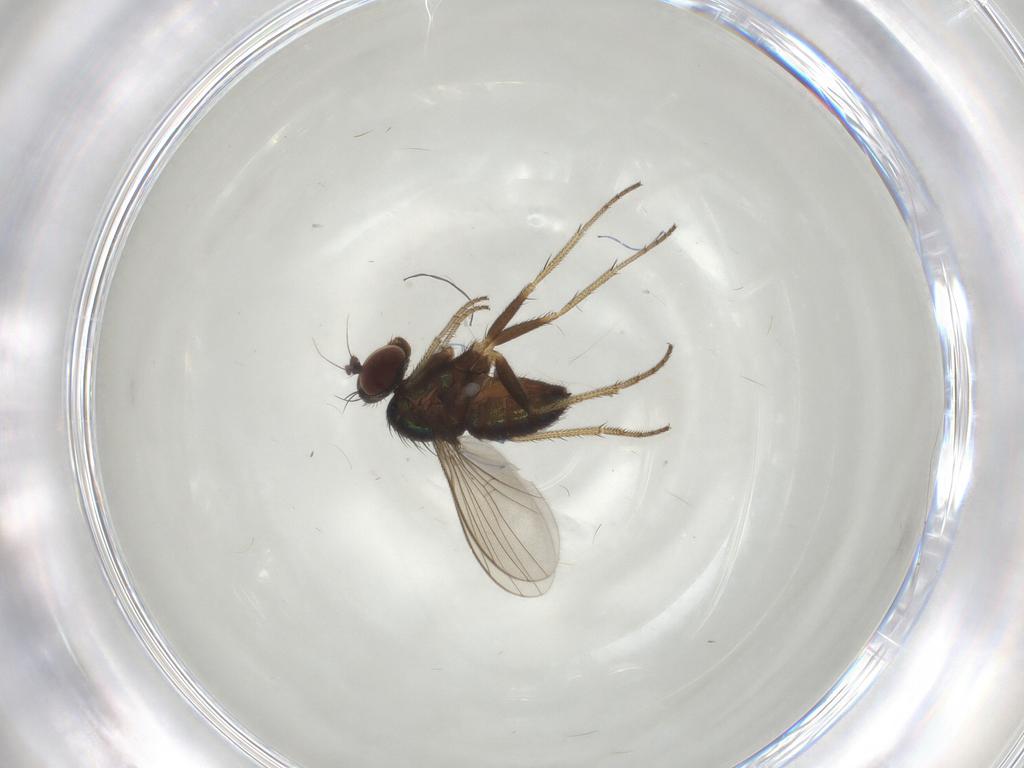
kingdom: Animalia
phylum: Arthropoda
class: Insecta
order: Diptera
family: Dolichopodidae
